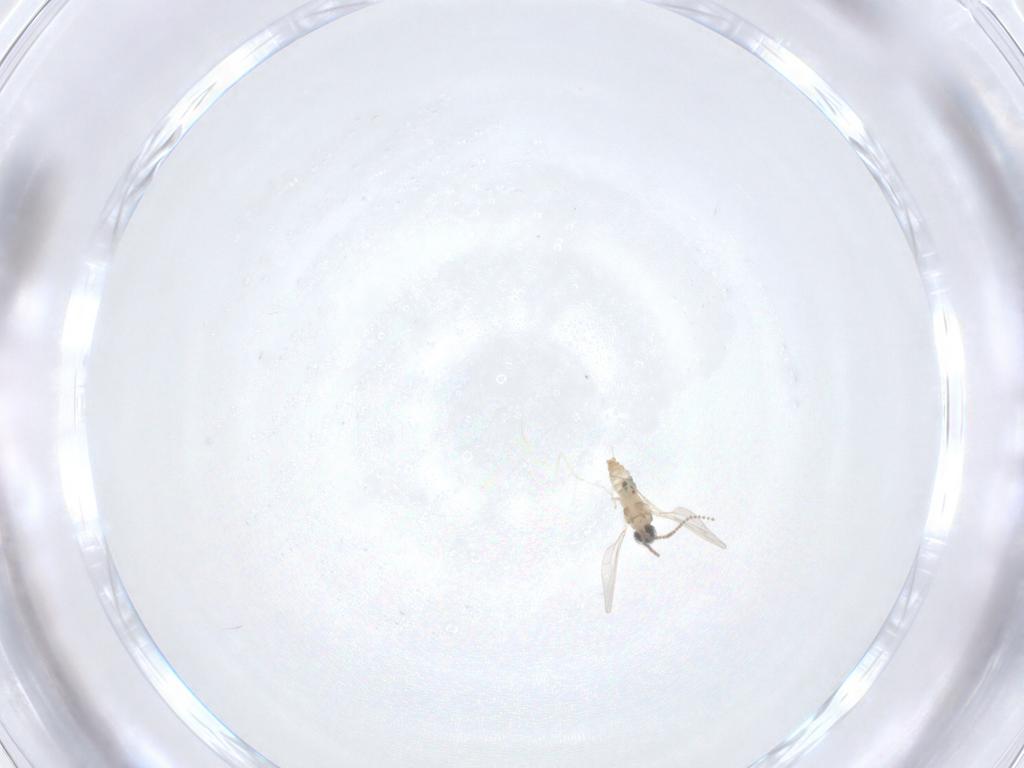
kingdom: Animalia
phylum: Arthropoda
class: Insecta
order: Diptera
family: Cecidomyiidae
